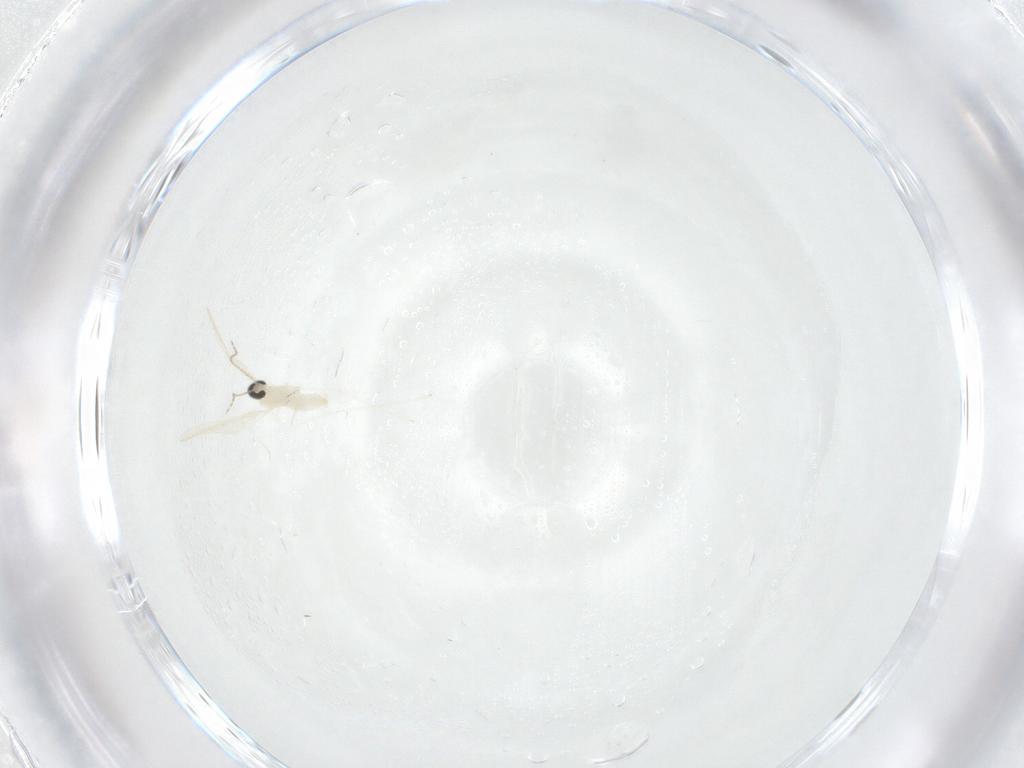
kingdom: Animalia
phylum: Arthropoda
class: Insecta
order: Diptera
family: Cecidomyiidae
